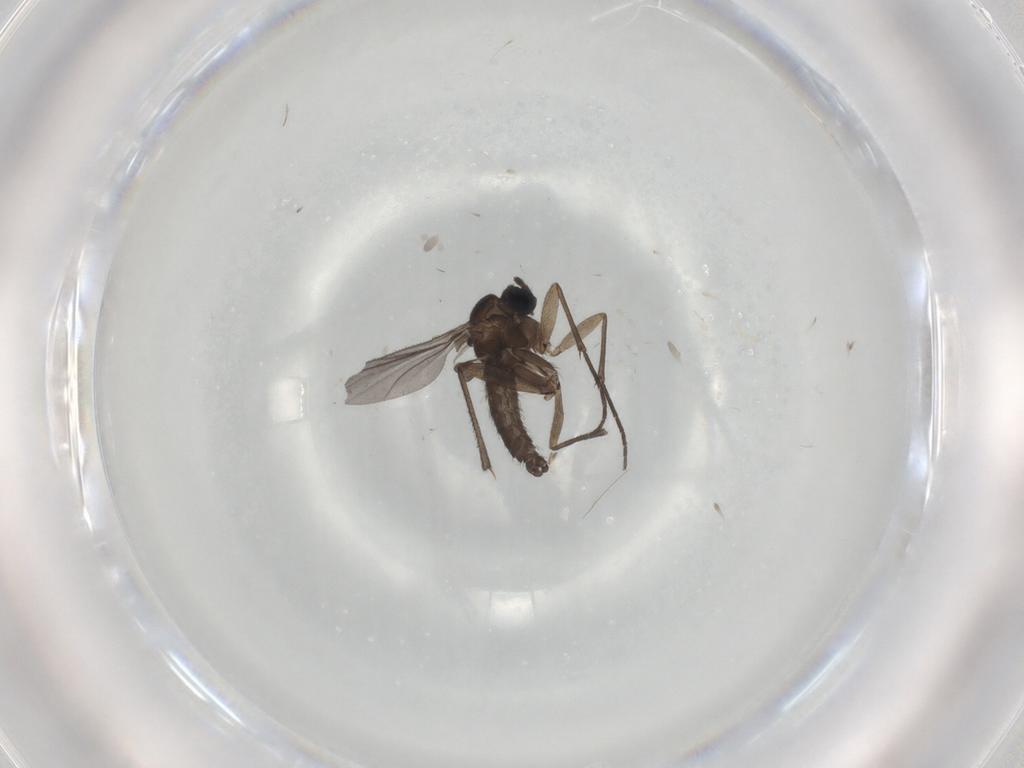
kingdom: Animalia
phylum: Arthropoda
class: Insecta
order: Diptera
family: Sciaridae
